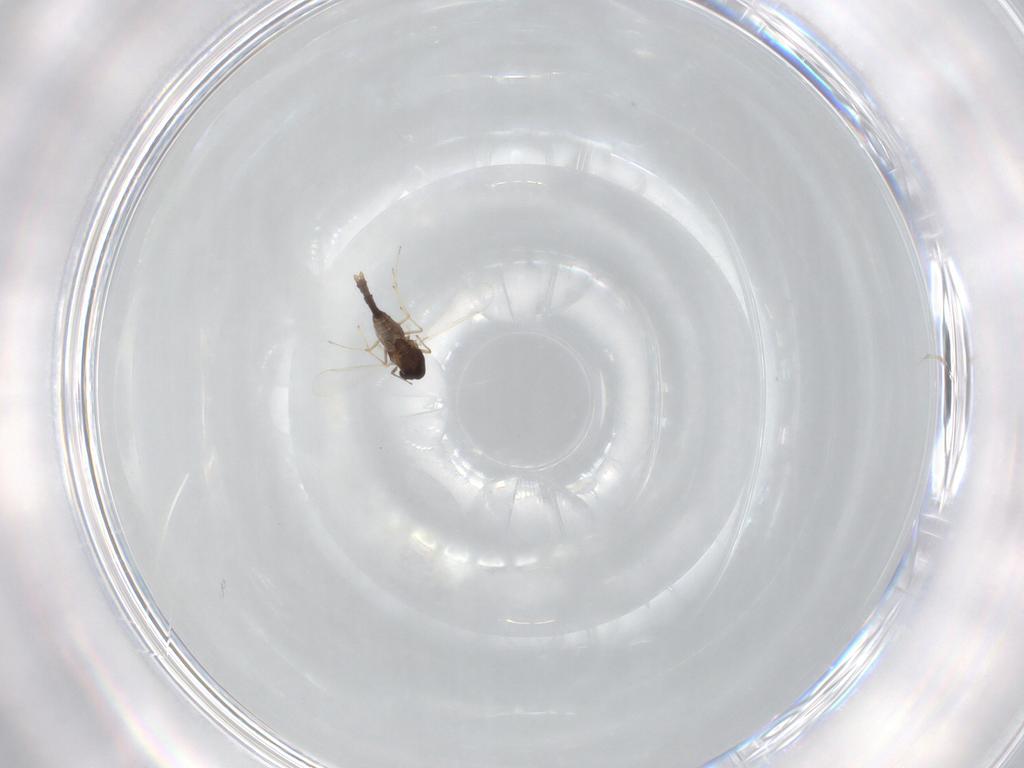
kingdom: Animalia
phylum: Arthropoda
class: Insecta
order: Diptera
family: Chironomidae
